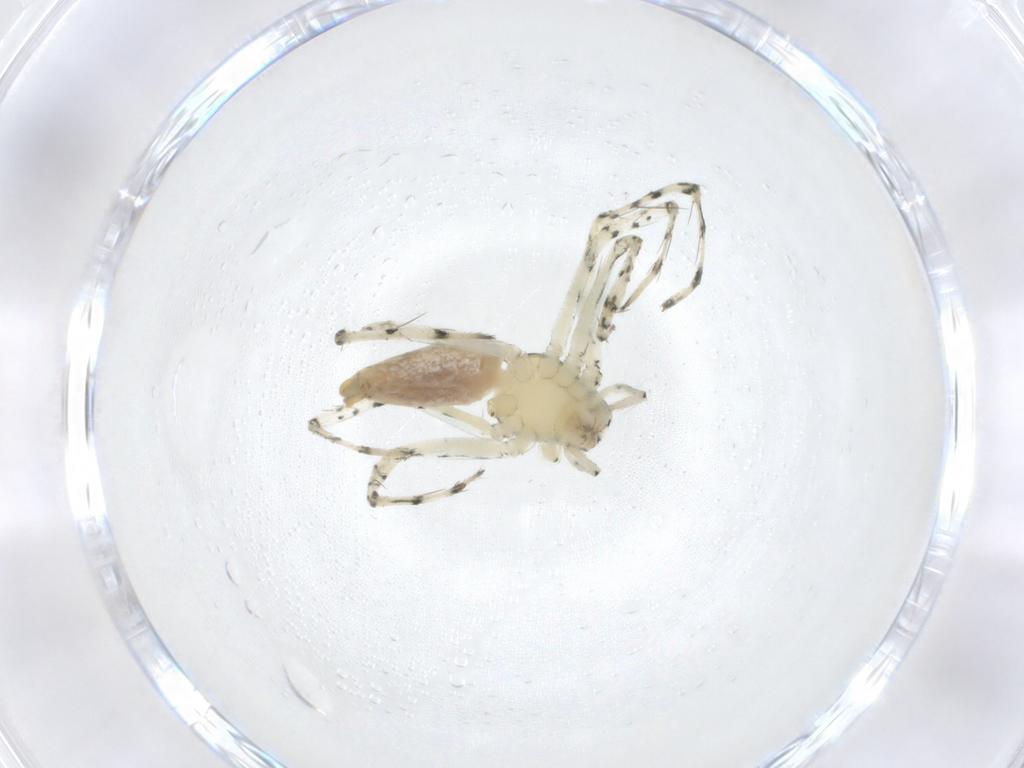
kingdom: Animalia
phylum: Arthropoda
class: Arachnida
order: Araneae
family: Oxyopidae
